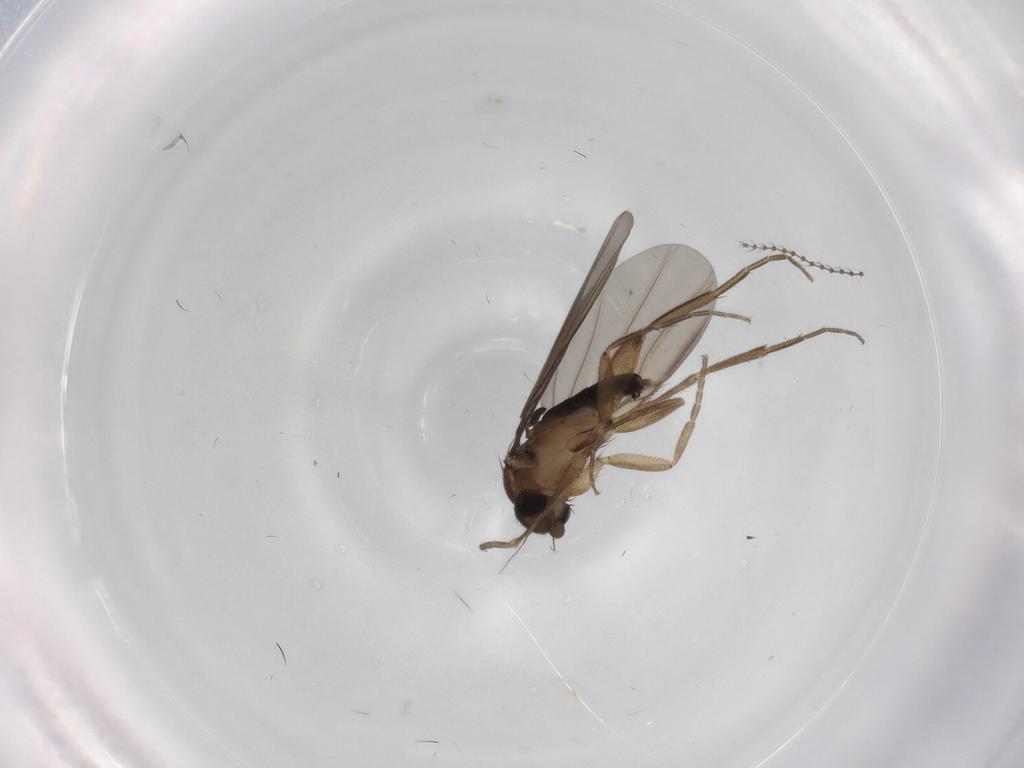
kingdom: Animalia
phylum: Arthropoda
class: Insecta
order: Diptera
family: Phoridae
